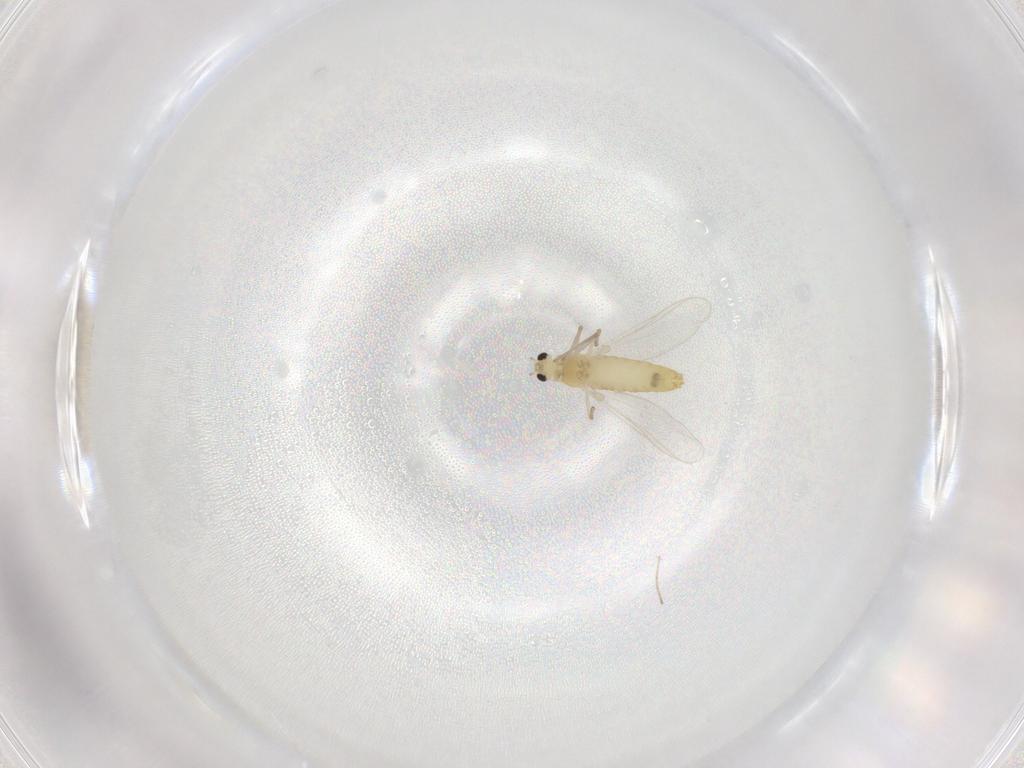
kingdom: Animalia
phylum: Arthropoda
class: Insecta
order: Diptera
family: Chironomidae
